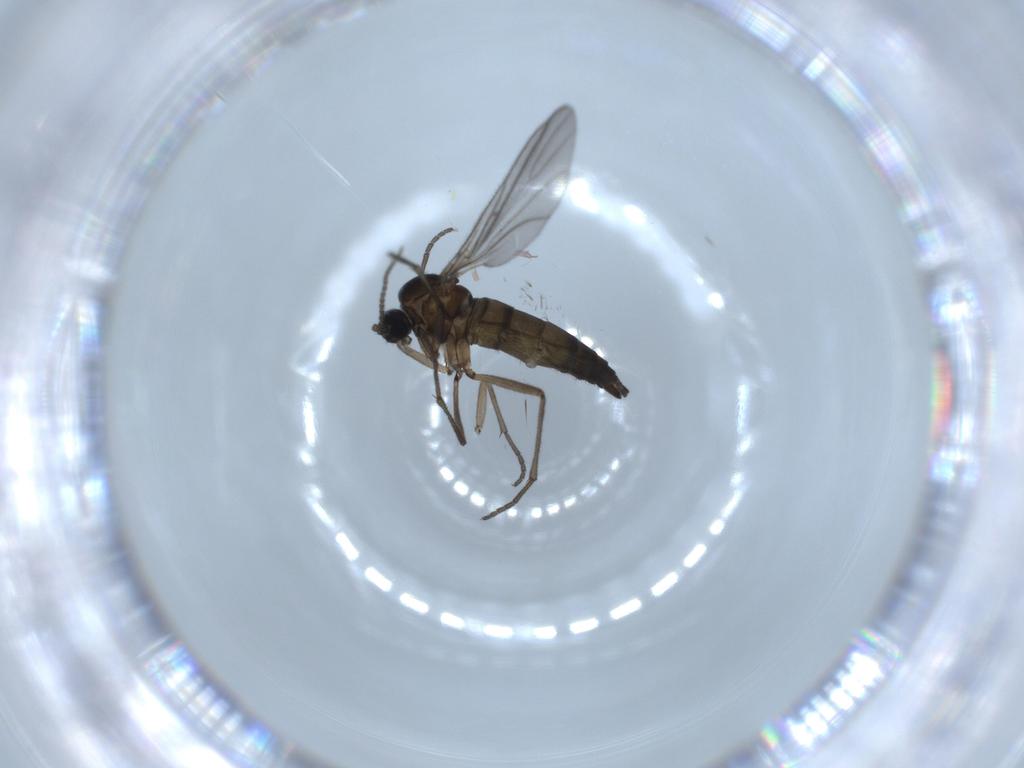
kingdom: Animalia
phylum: Arthropoda
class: Insecta
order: Diptera
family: Sciaridae
